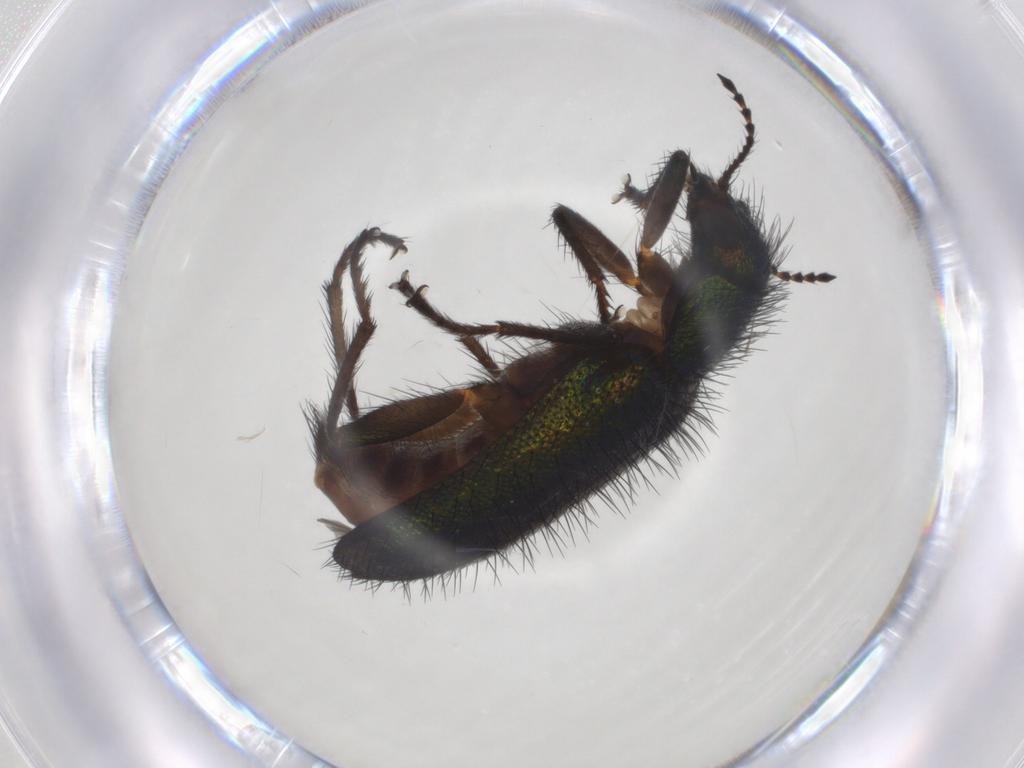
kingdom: Animalia
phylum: Arthropoda
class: Insecta
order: Coleoptera
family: Melyridae
